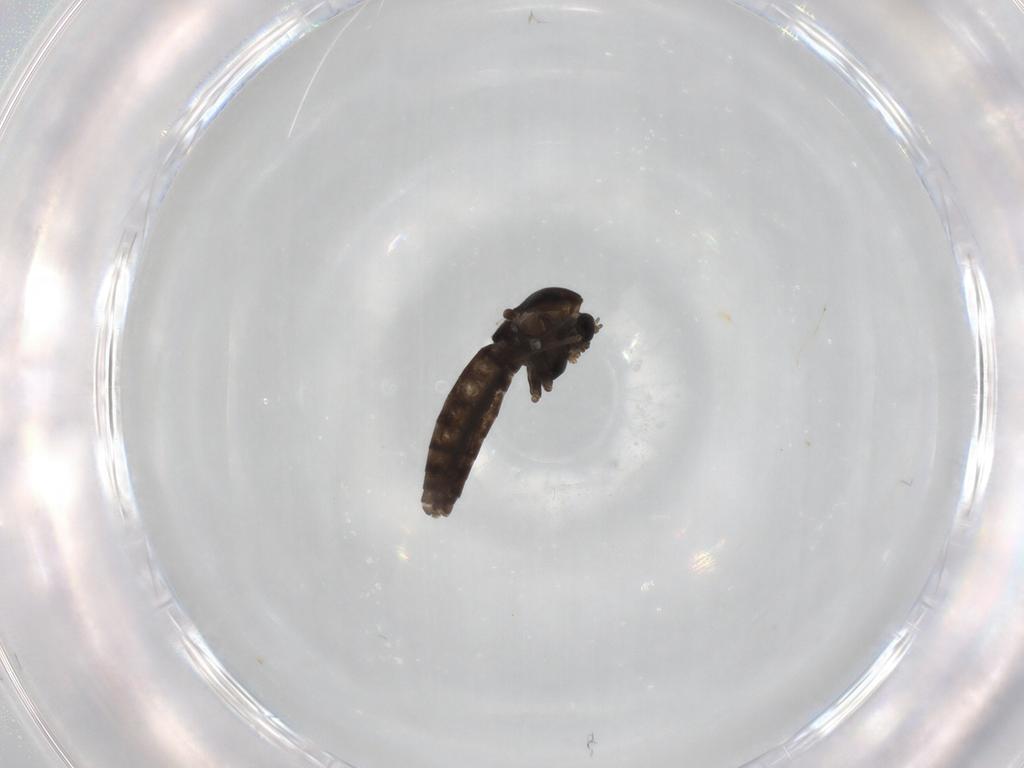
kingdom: Animalia
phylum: Arthropoda
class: Insecta
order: Diptera
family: Chironomidae
